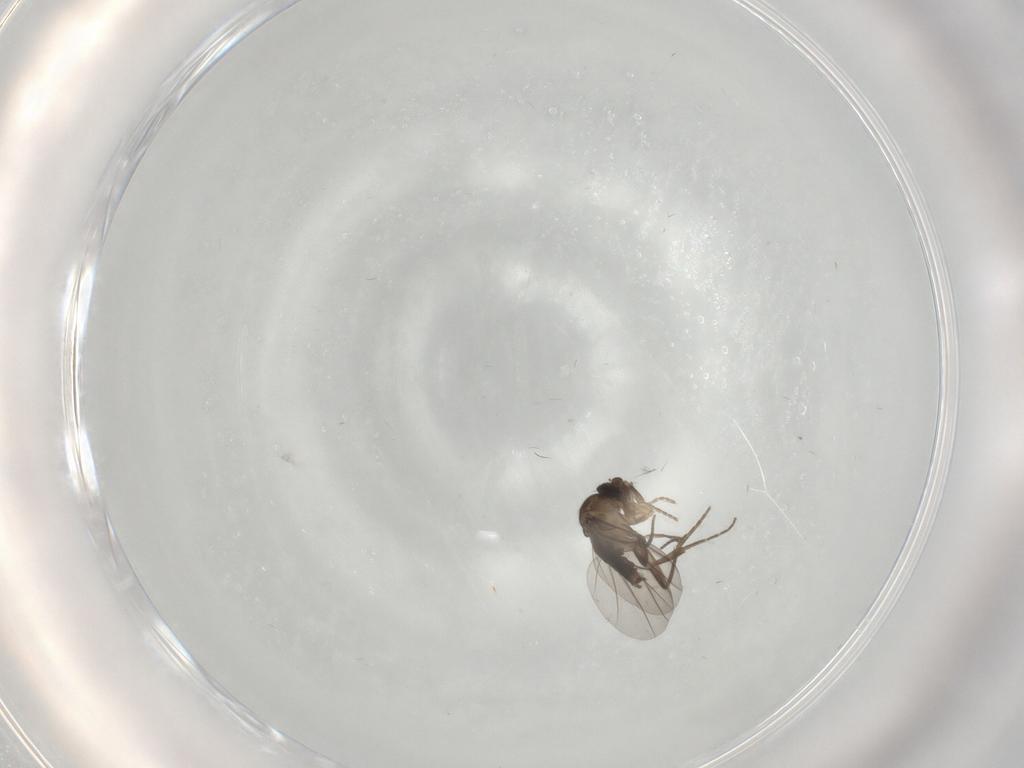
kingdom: Animalia
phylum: Arthropoda
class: Insecta
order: Diptera
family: Phoridae
